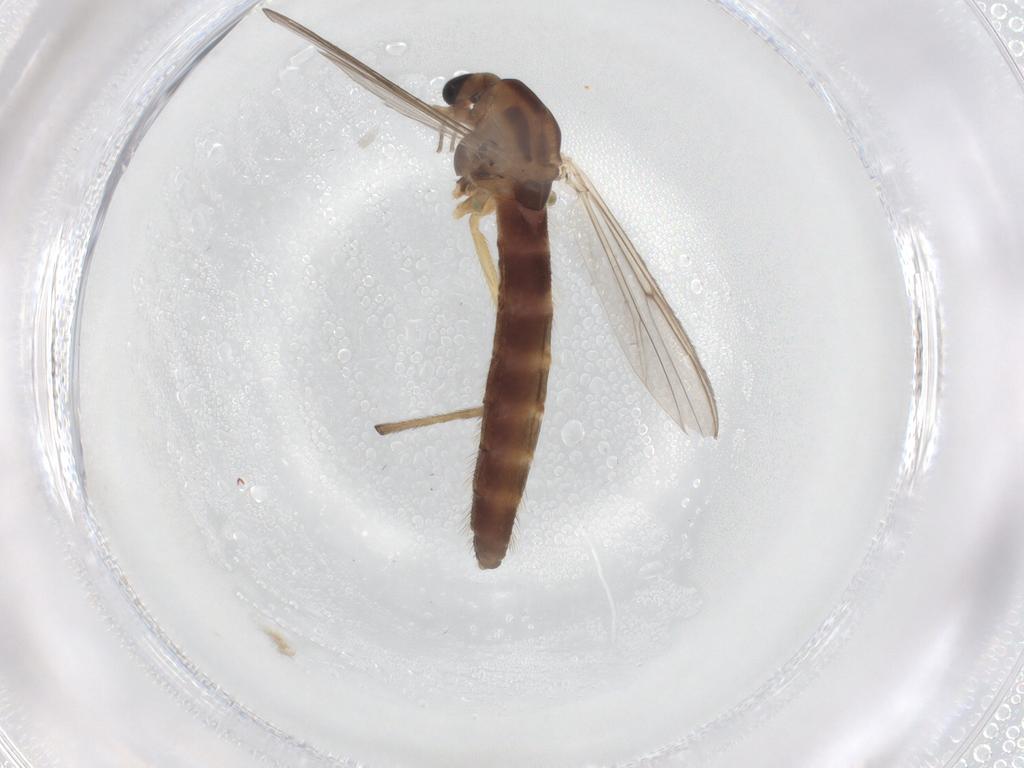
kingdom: Animalia
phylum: Arthropoda
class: Insecta
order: Diptera
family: Chironomidae
